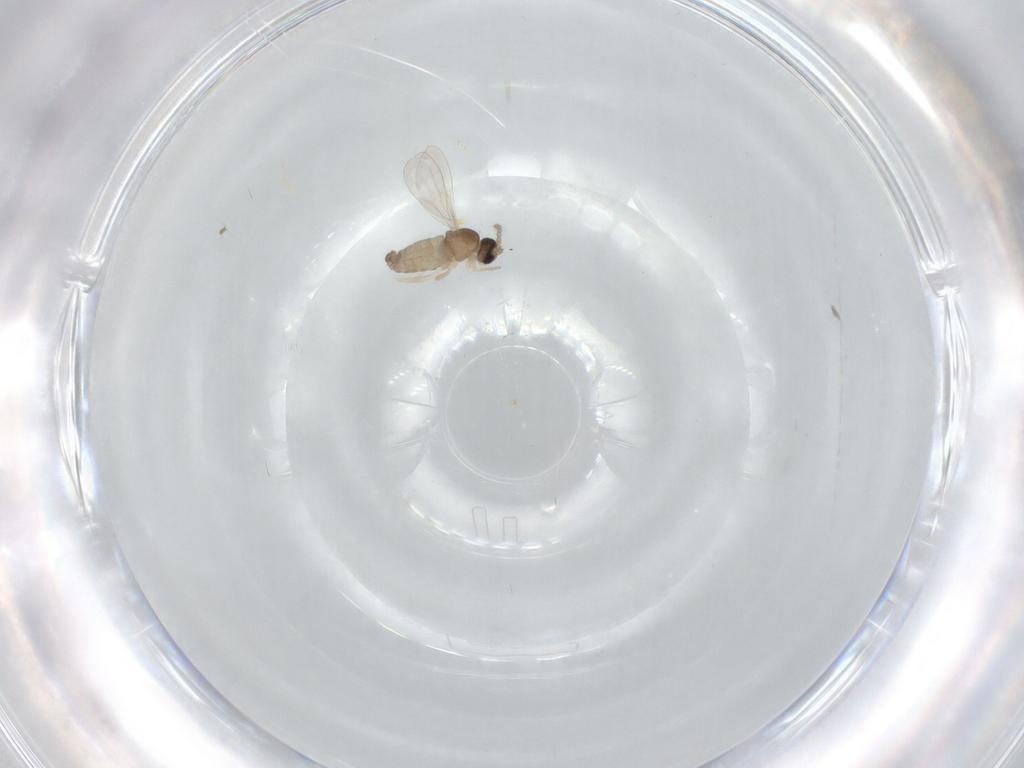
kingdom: Animalia
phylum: Arthropoda
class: Insecta
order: Diptera
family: Cecidomyiidae
